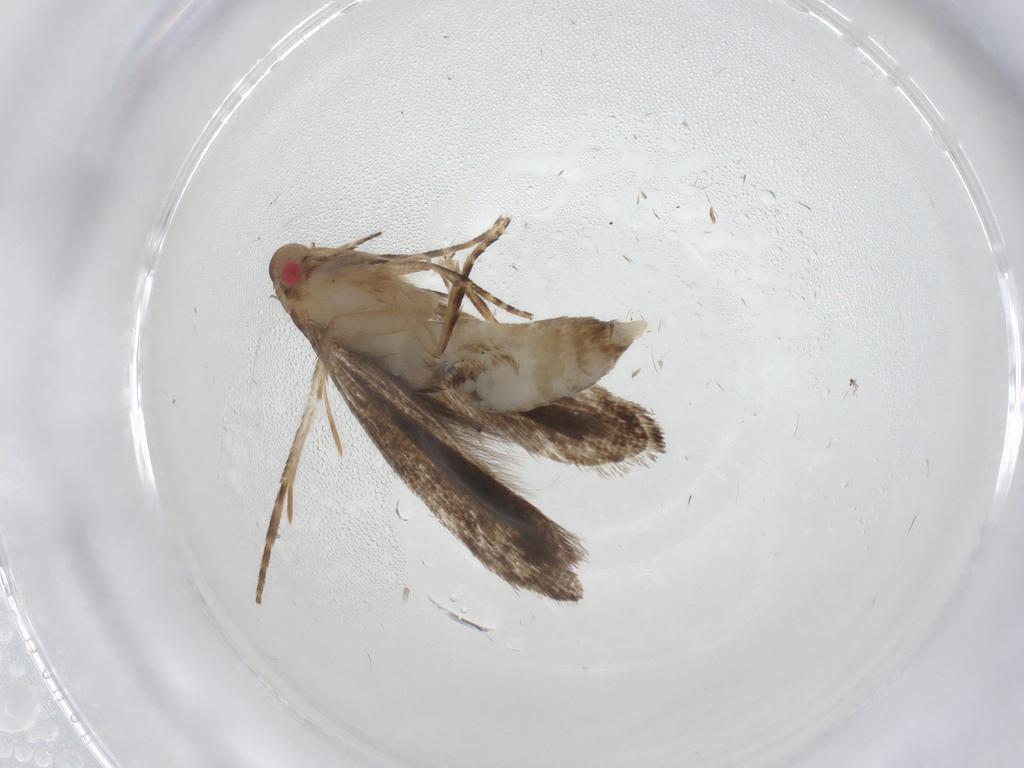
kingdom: Animalia
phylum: Arthropoda
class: Insecta
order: Lepidoptera
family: Gelechiidae
